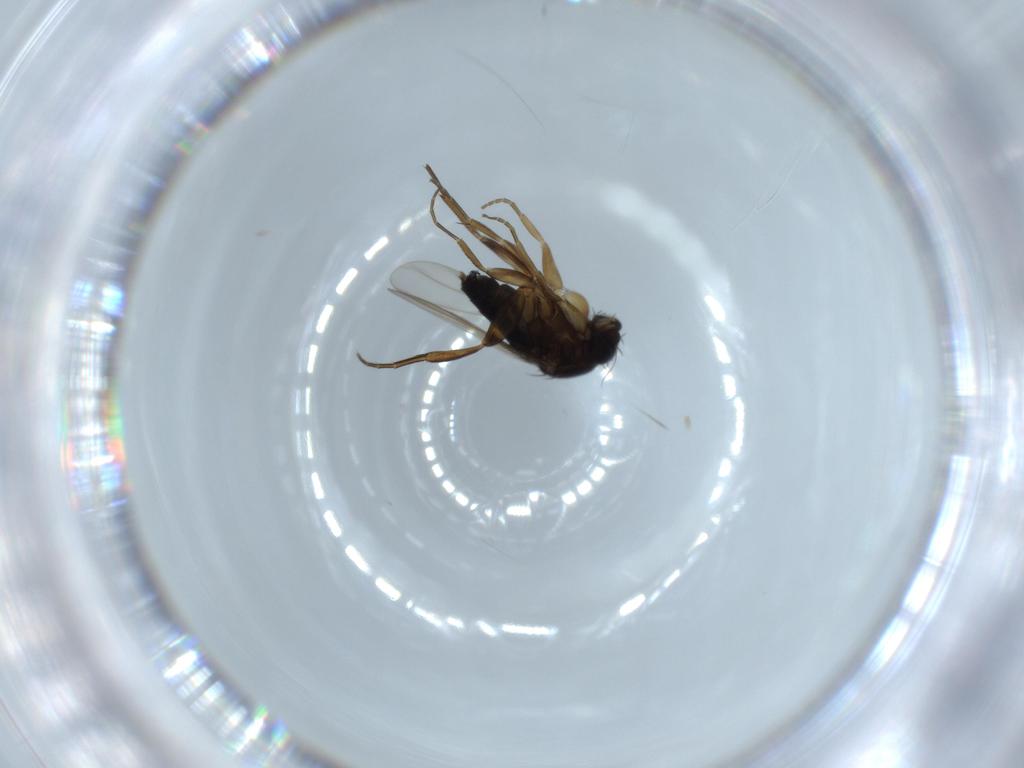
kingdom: Animalia
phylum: Arthropoda
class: Insecta
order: Diptera
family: Phoridae
